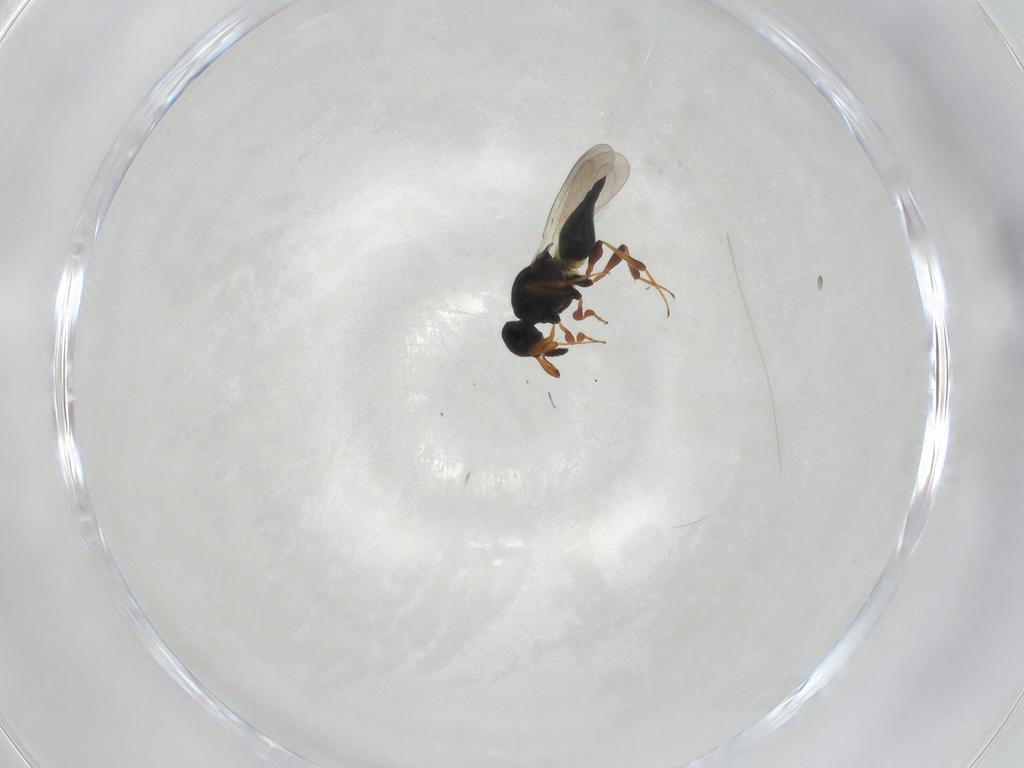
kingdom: Animalia
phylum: Arthropoda
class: Insecta
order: Hymenoptera
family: Platygastridae
